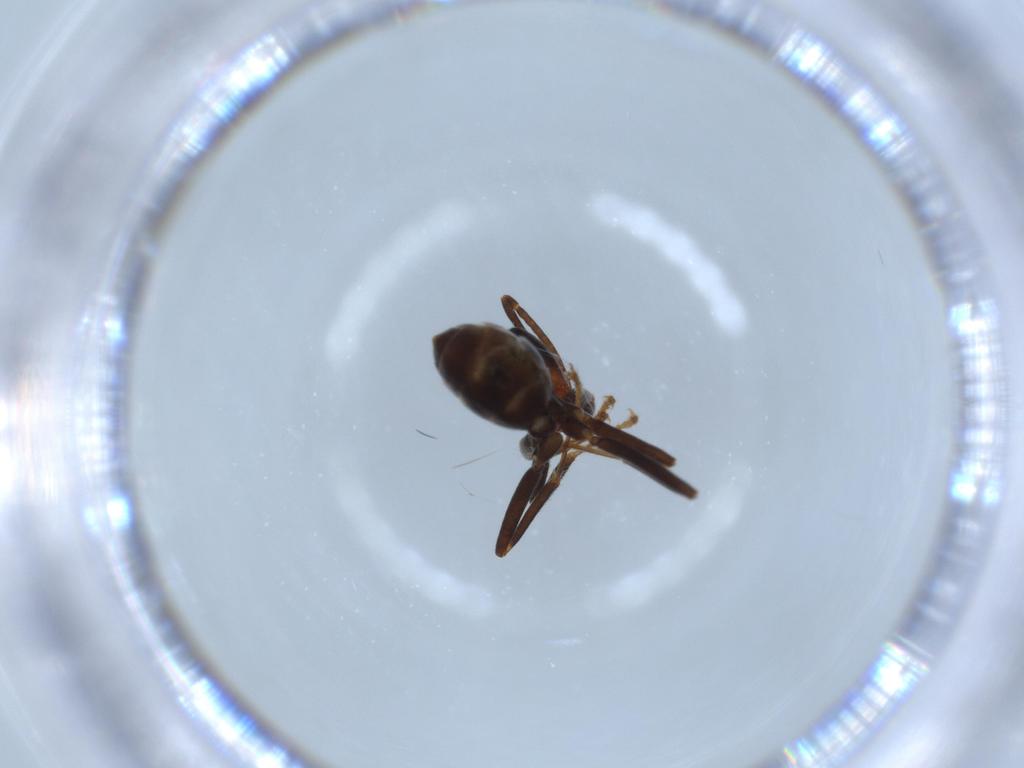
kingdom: Animalia
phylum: Arthropoda
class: Insecta
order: Hymenoptera
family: Formicidae
